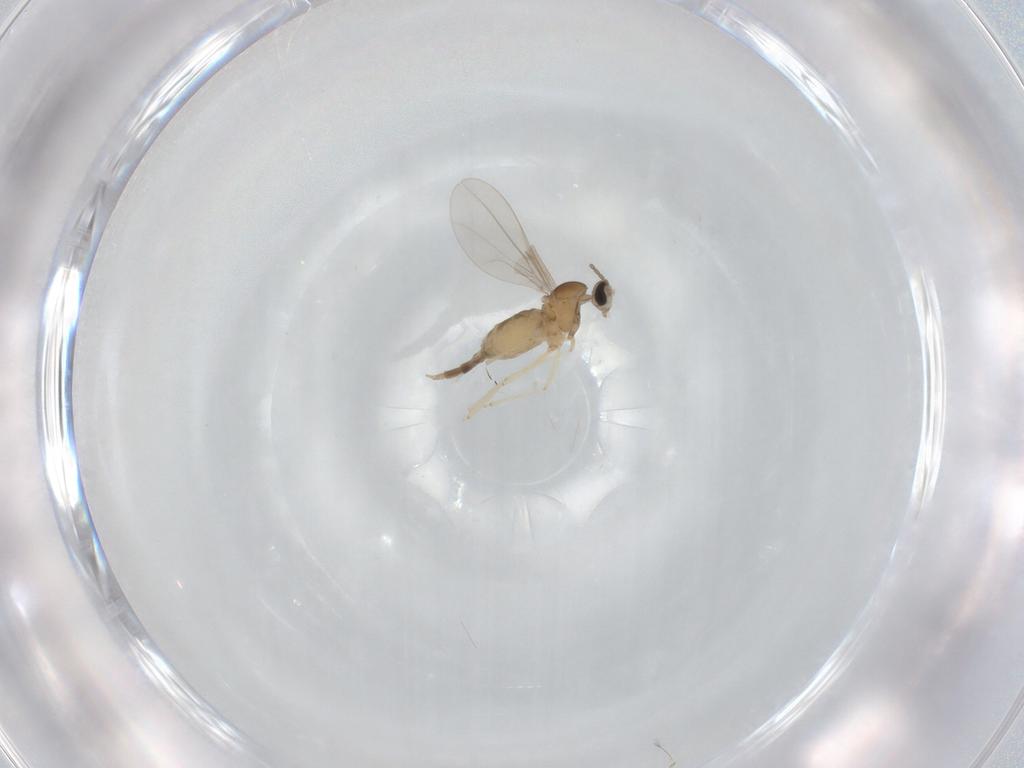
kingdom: Animalia
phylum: Arthropoda
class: Insecta
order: Diptera
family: Cecidomyiidae
